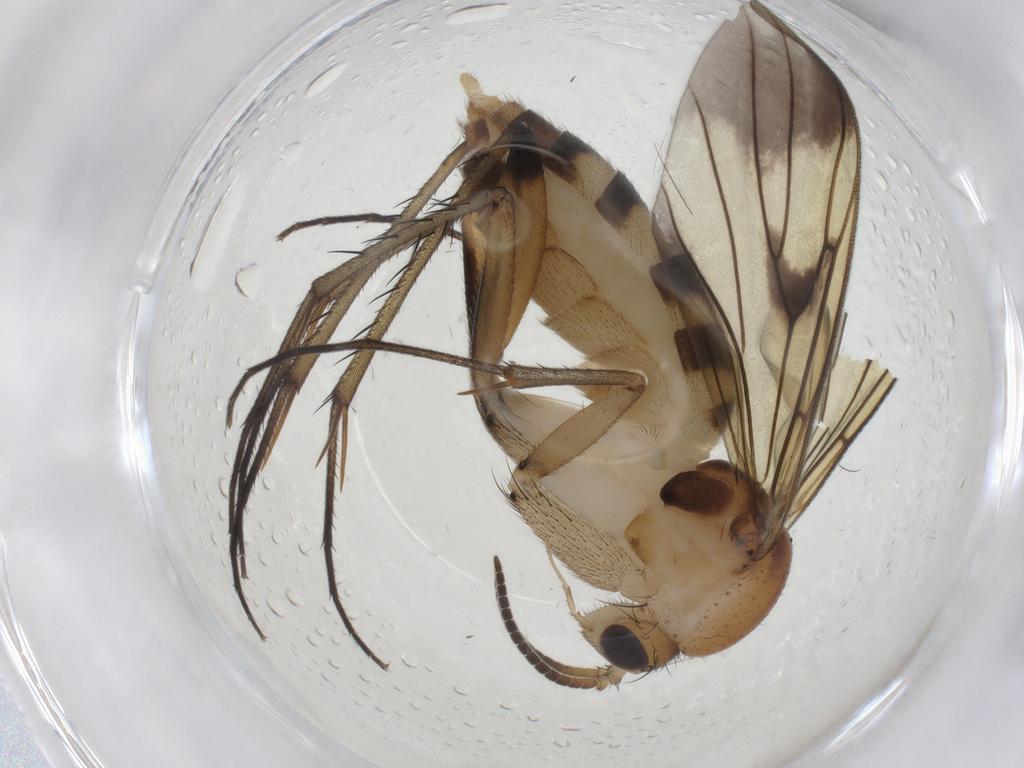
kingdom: Animalia
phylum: Arthropoda
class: Insecta
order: Diptera
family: Mycetophilidae
